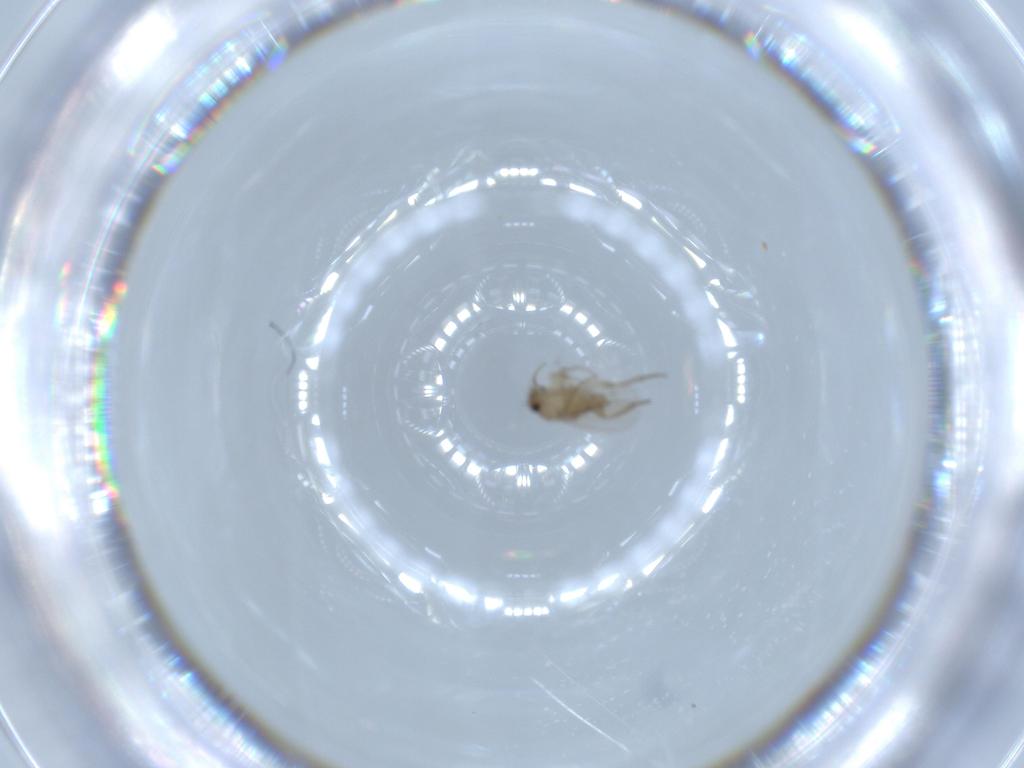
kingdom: Animalia
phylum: Arthropoda
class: Insecta
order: Diptera
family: Phoridae
